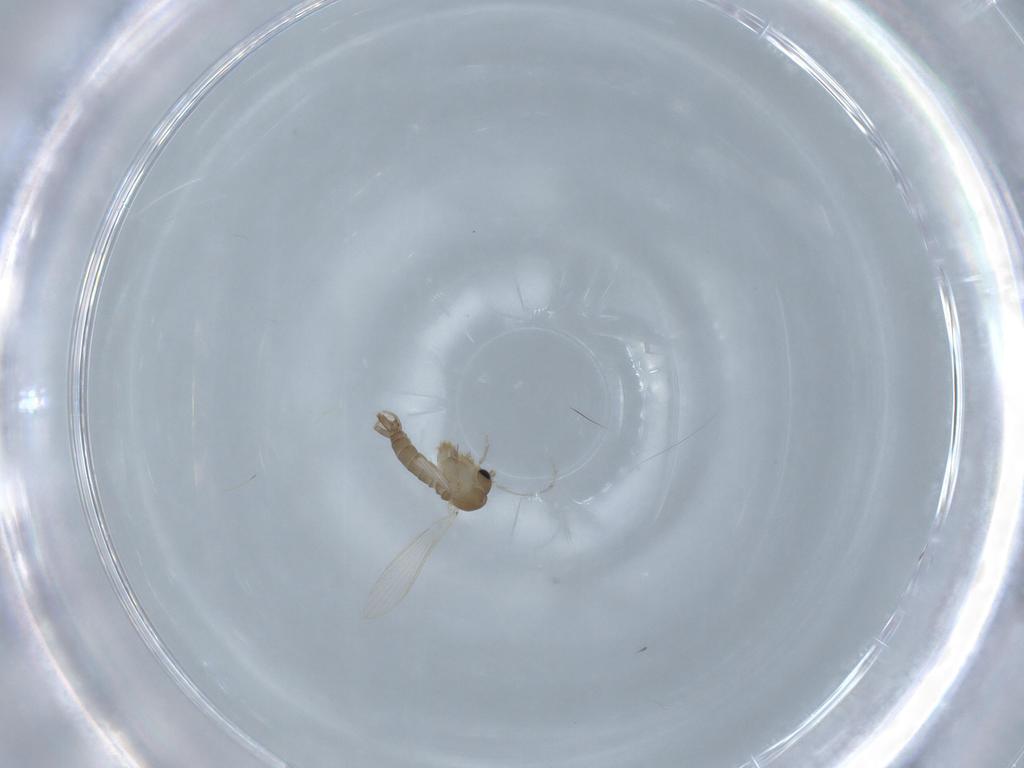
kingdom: Animalia
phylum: Arthropoda
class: Insecta
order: Diptera
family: Psychodidae
